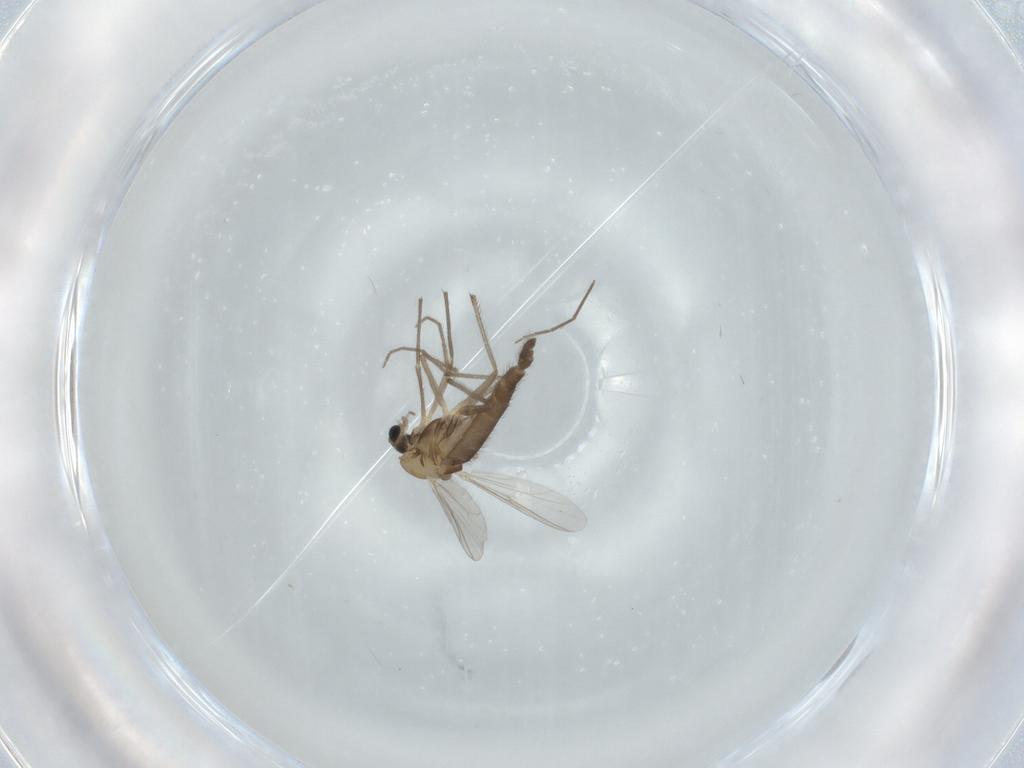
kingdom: Animalia
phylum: Arthropoda
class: Insecta
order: Diptera
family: Chironomidae
